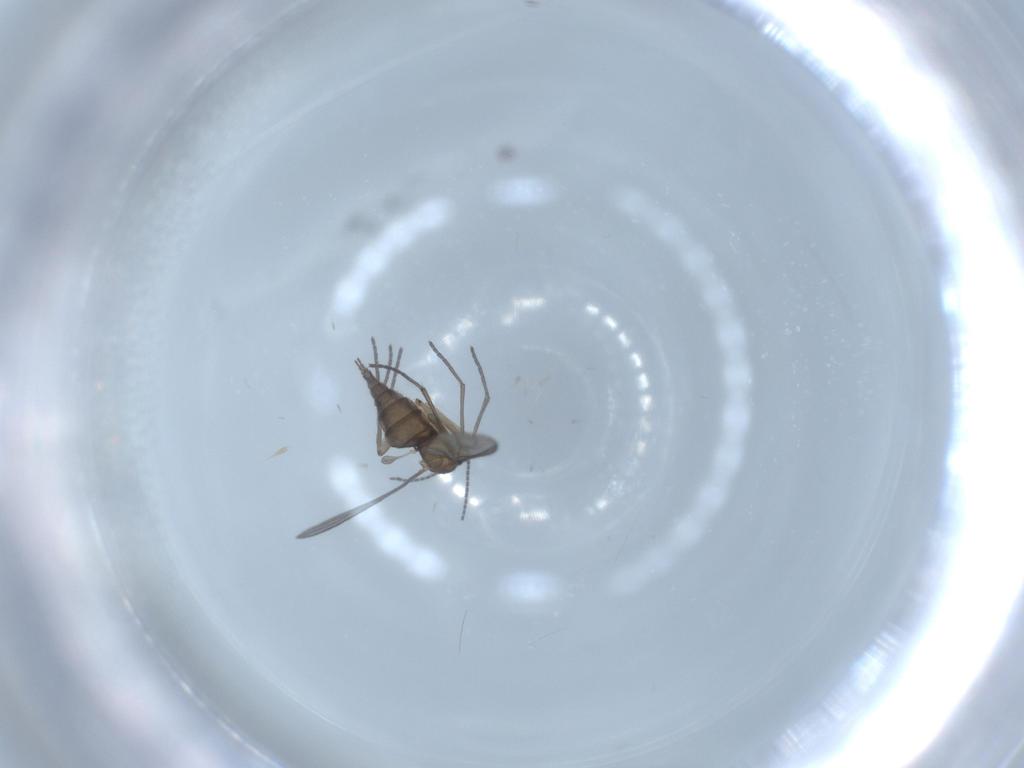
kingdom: Animalia
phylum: Arthropoda
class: Insecta
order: Diptera
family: Sciaridae
